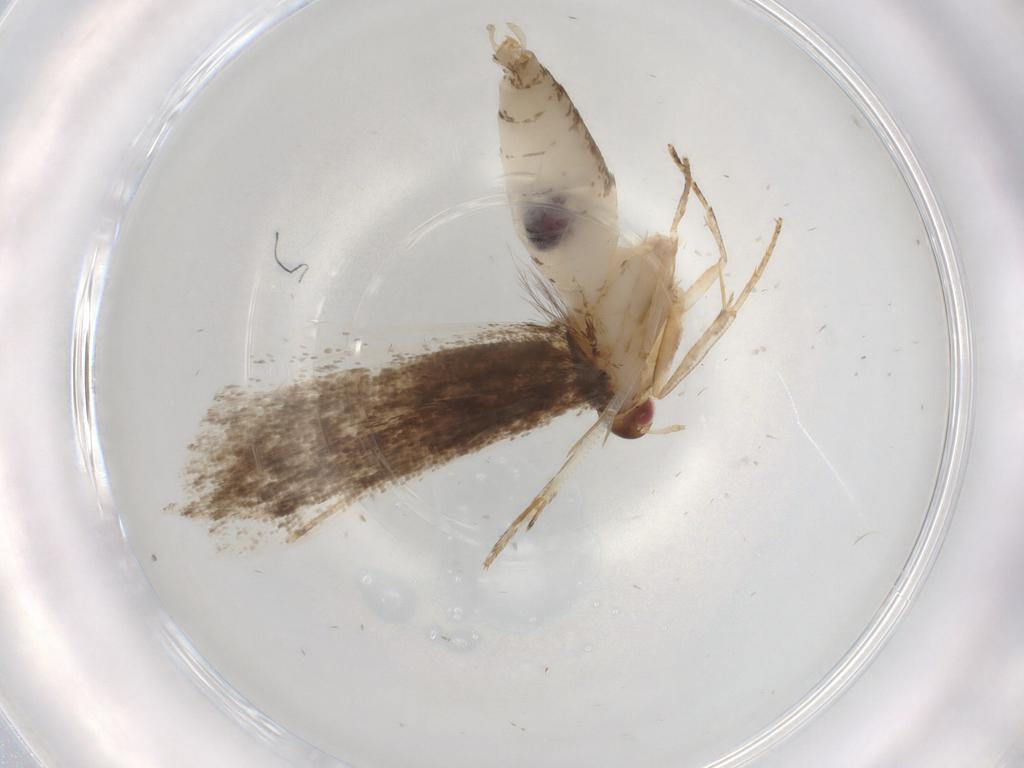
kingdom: Animalia
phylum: Arthropoda
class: Insecta
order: Lepidoptera
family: Gelechiidae
